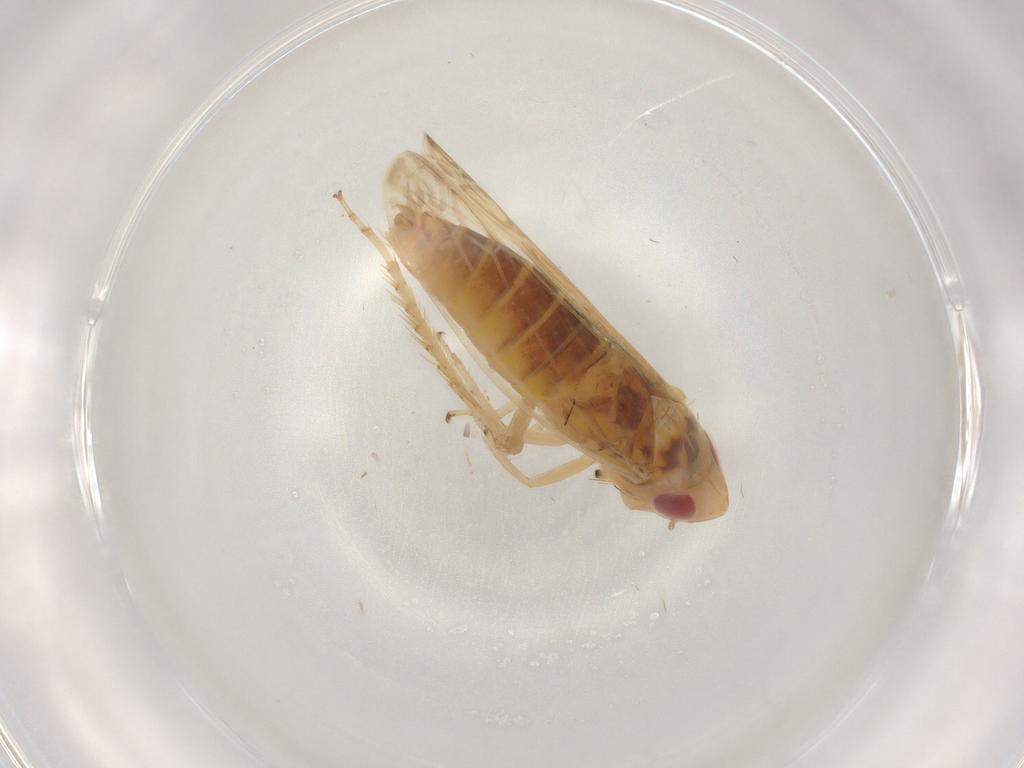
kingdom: Animalia
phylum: Arthropoda
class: Insecta
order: Hemiptera
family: Cicadellidae
